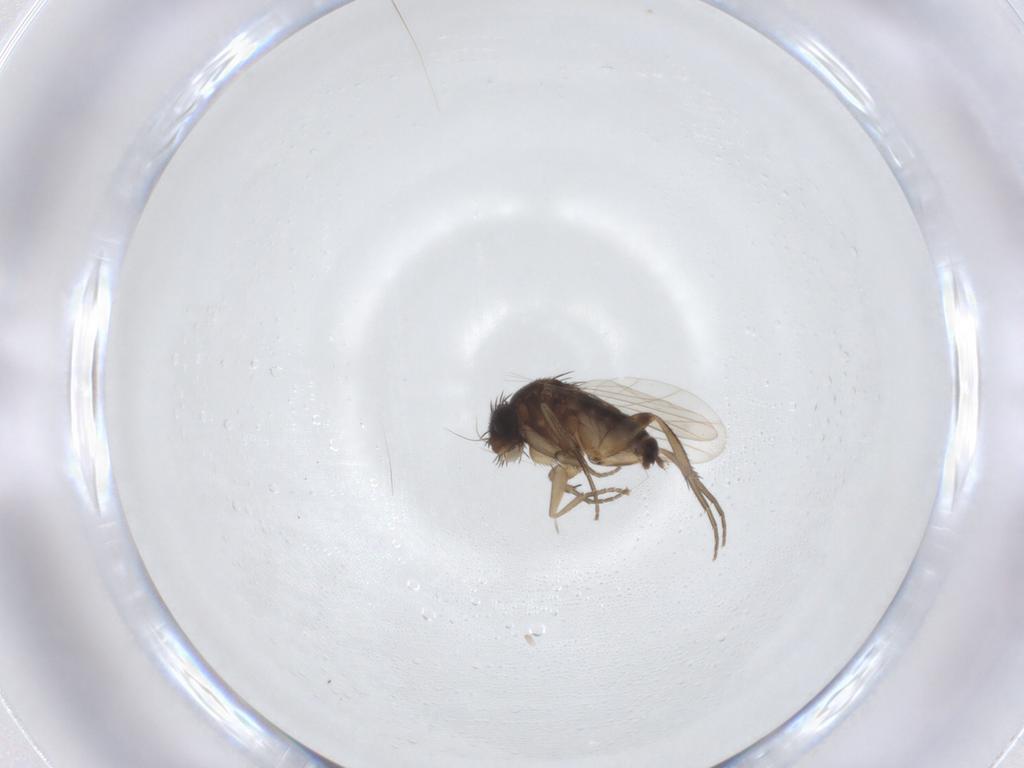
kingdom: Animalia
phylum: Arthropoda
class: Insecta
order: Diptera
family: Phoridae
